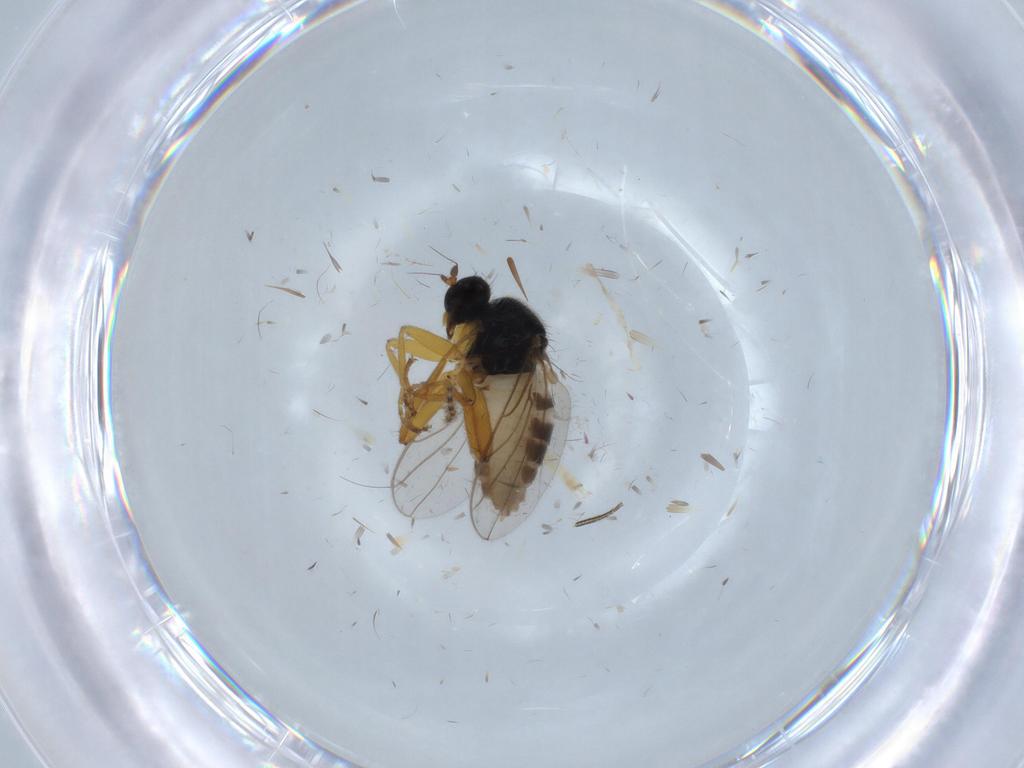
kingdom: Animalia
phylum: Arthropoda
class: Insecta
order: Diptera
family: Hybotidae
